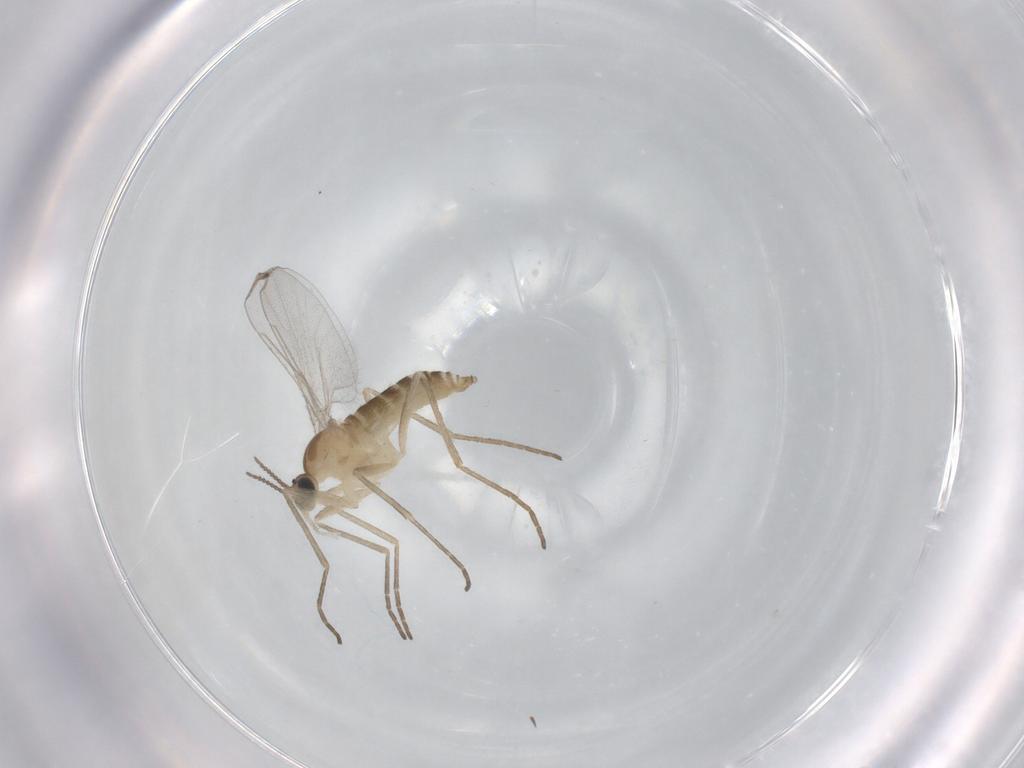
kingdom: Animalia
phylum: Arthropoda
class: Insecta
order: Diptera
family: Cecidomyiidae
